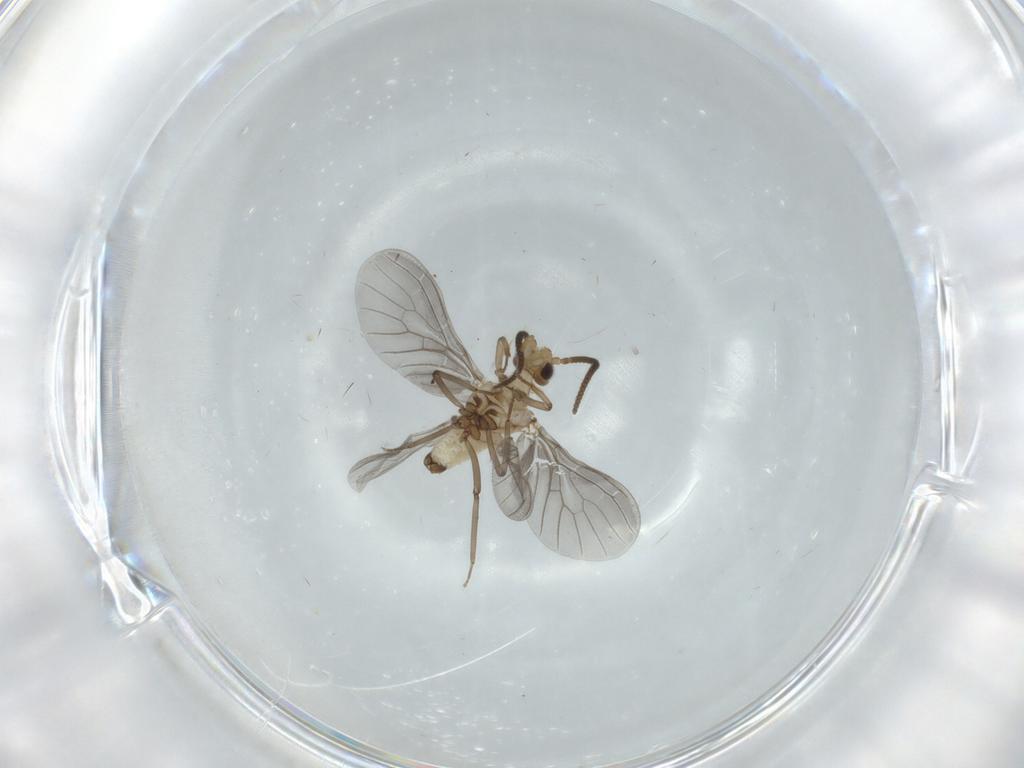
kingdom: Animalia
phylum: Arthropoda
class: Insecta
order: Neuroptera
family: Coniopterygidae
